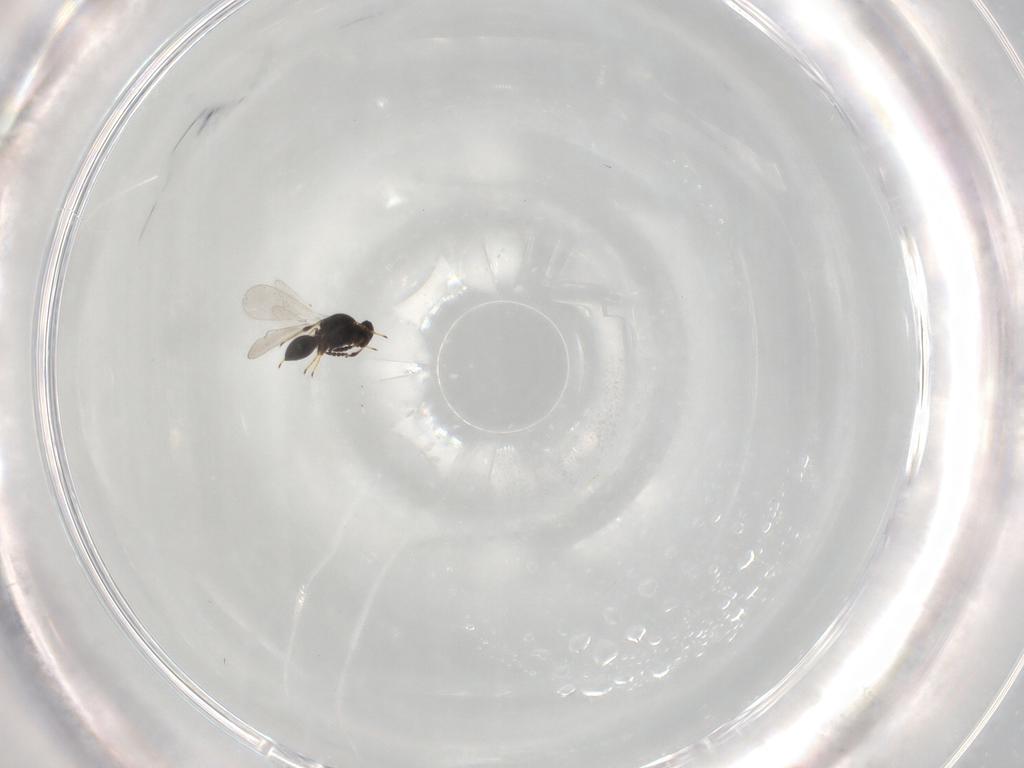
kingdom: Animalia
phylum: Arthropoda
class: Insecta
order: Hymenoptera
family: Platygastridae
